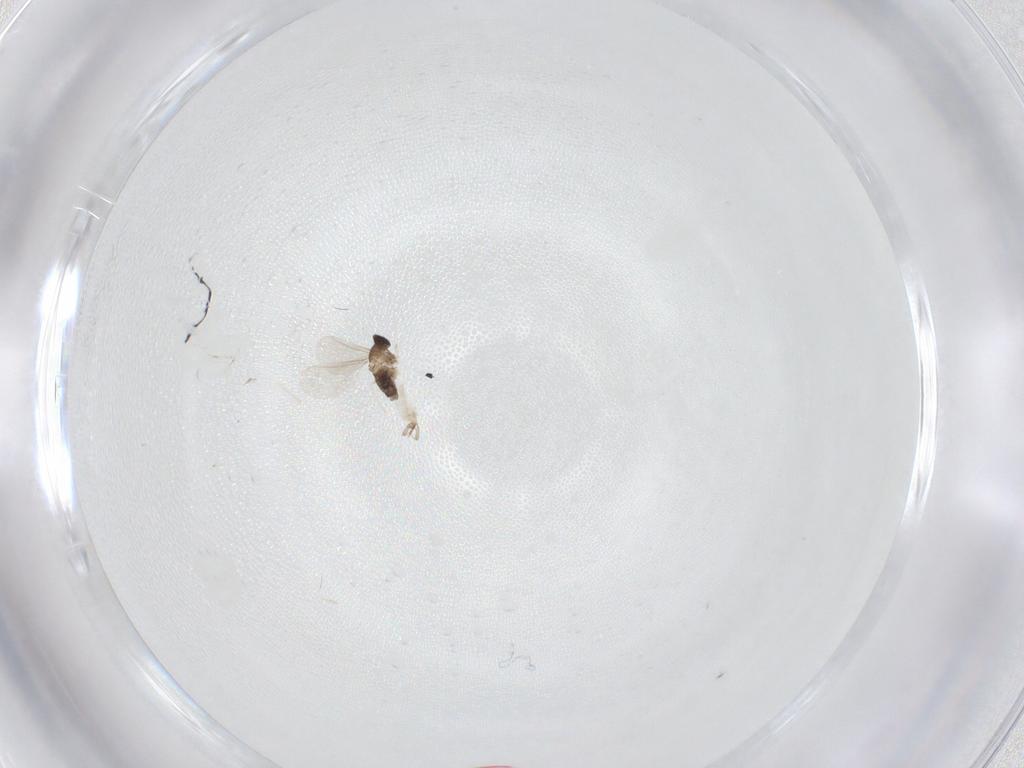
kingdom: Animalia
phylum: Arthropoda
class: Insecta
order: Diptera
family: Cecidomyiidae
